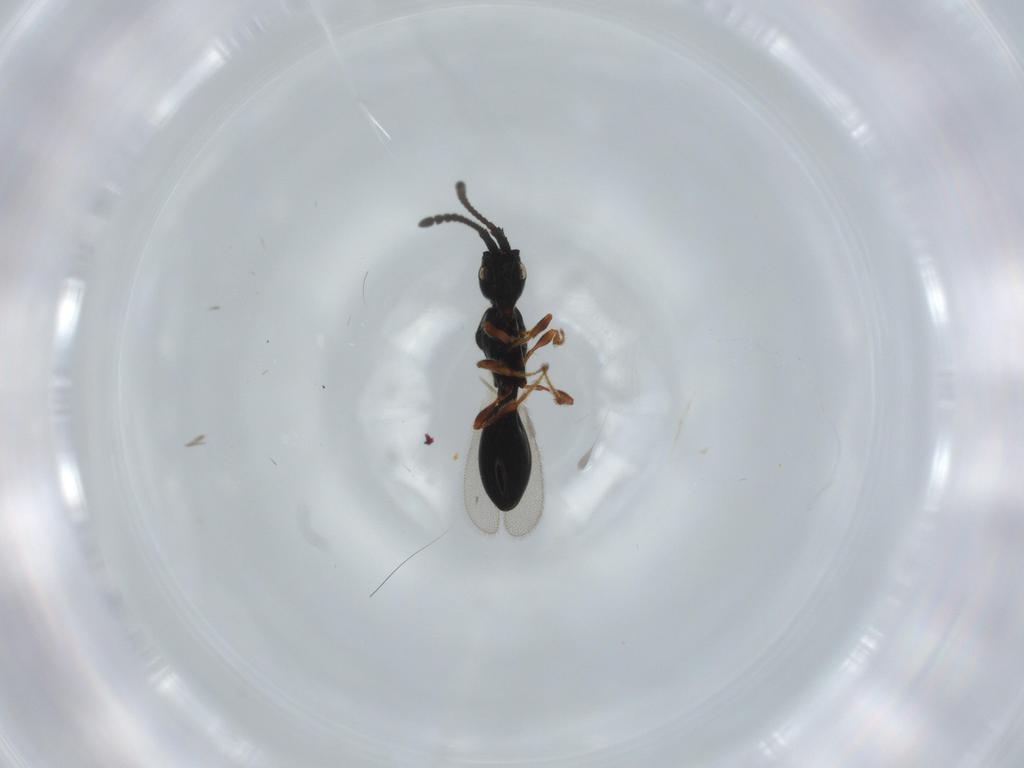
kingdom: Animalia
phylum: Arthropoda
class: Insecta
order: Hymenoptera
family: Diapriidae
